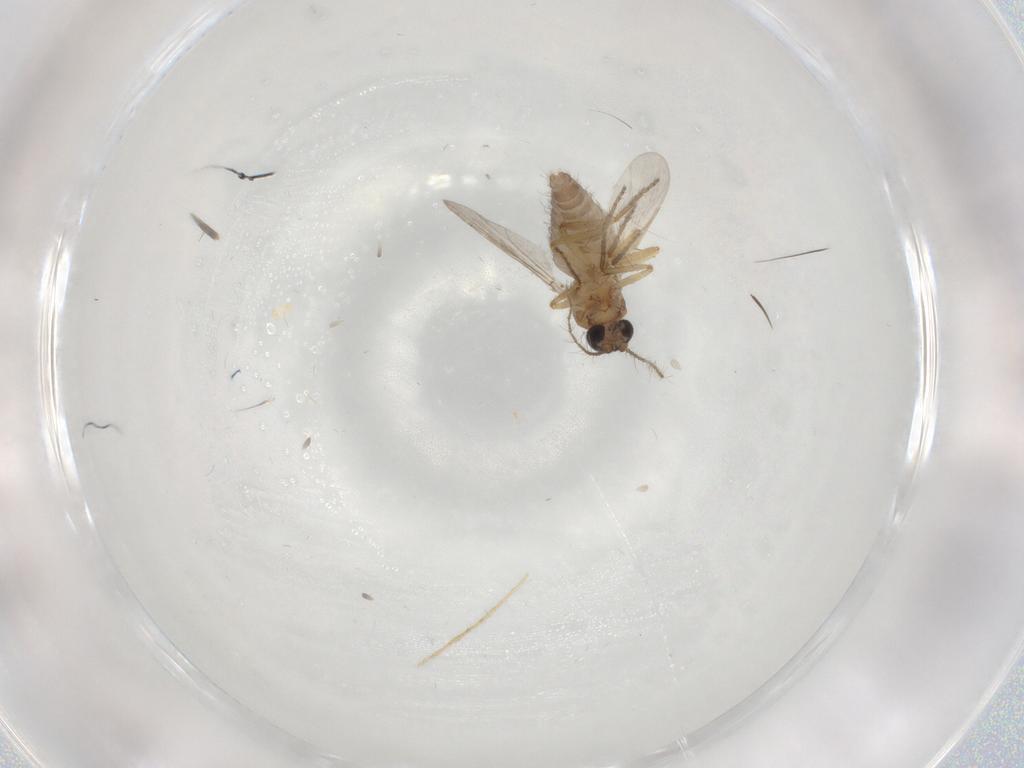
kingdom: Animalia
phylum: Arthropoda
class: Insecta
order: Diptera
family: Ceratopogonidae
